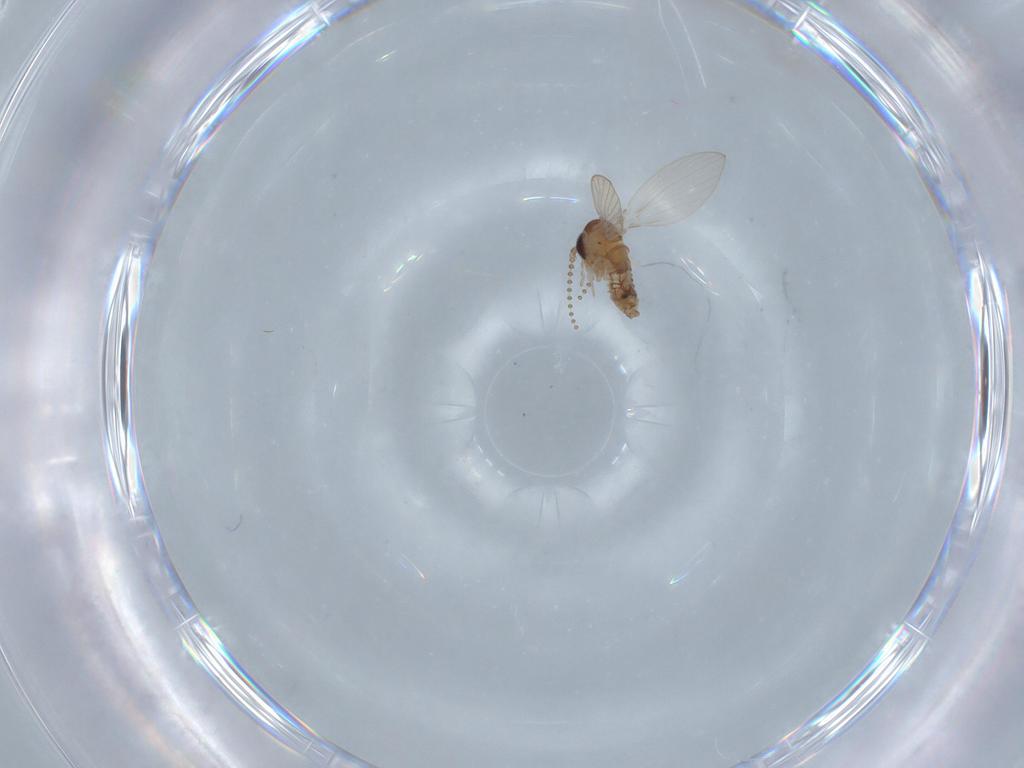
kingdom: Animalia
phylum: Arthropoda
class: Insecta
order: Diptera
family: Psychodidae
